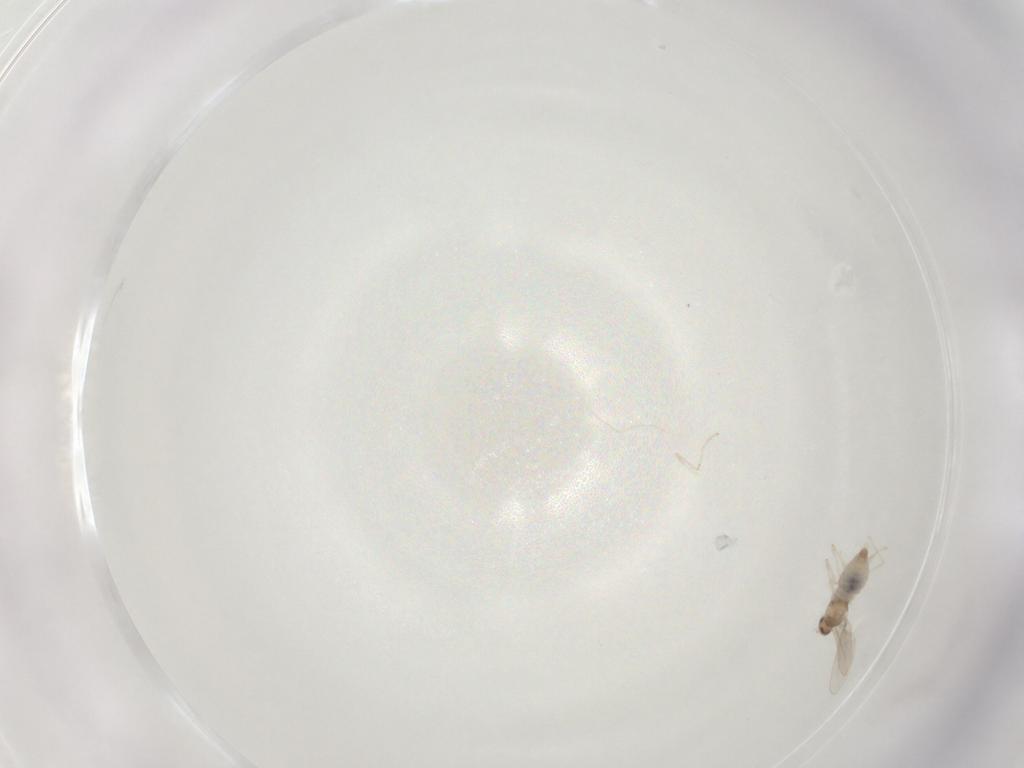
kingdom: Animalia
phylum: Arthropoda
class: Insecta
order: Diptera
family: Cecidomyiidae
